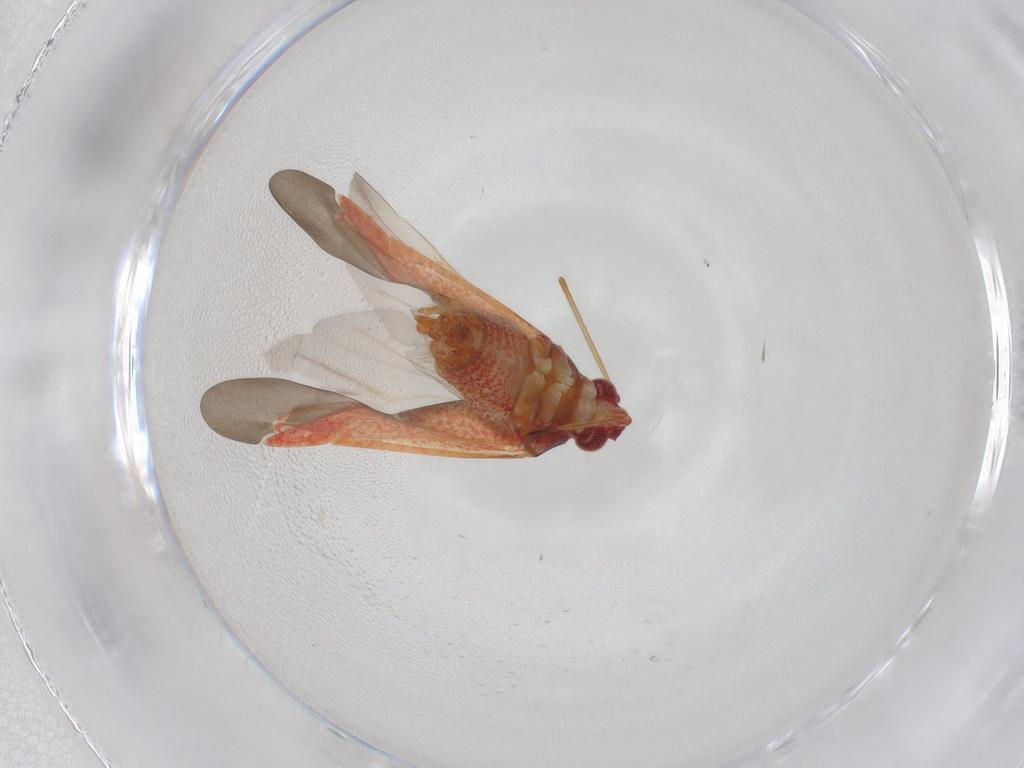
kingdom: Animalia
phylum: Arthropoda
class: Insecta
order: Hemiptera
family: Miridae
